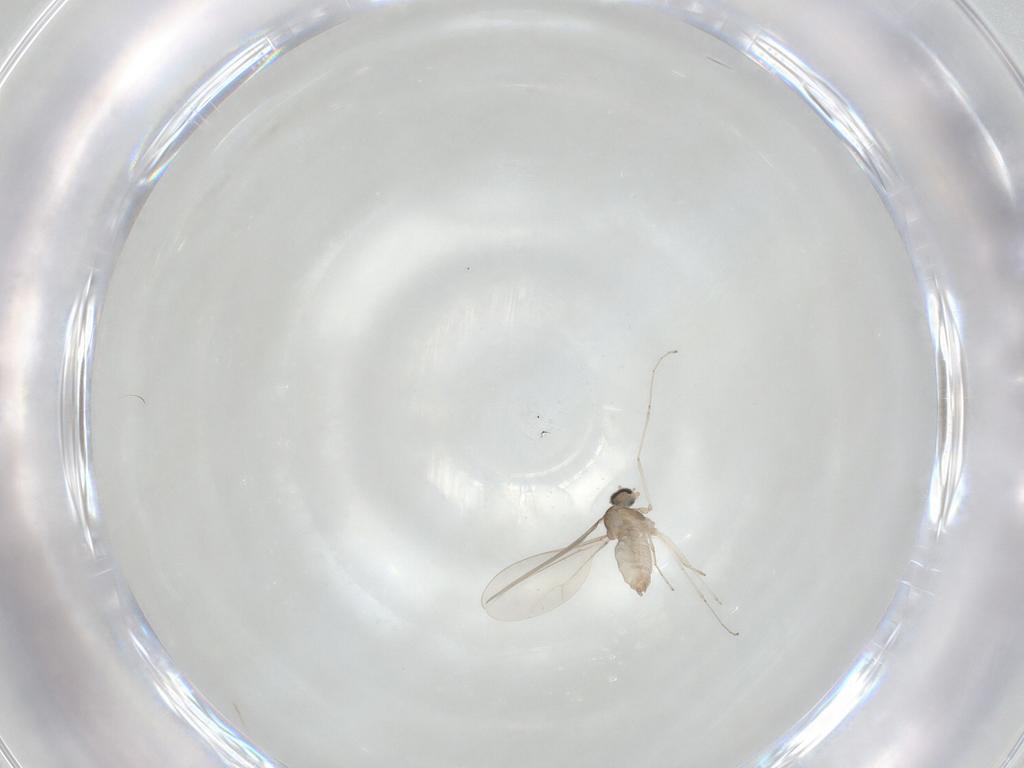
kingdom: Animalia
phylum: Arthropoda
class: Insecta
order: Diptera
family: Cecidomyiidae
